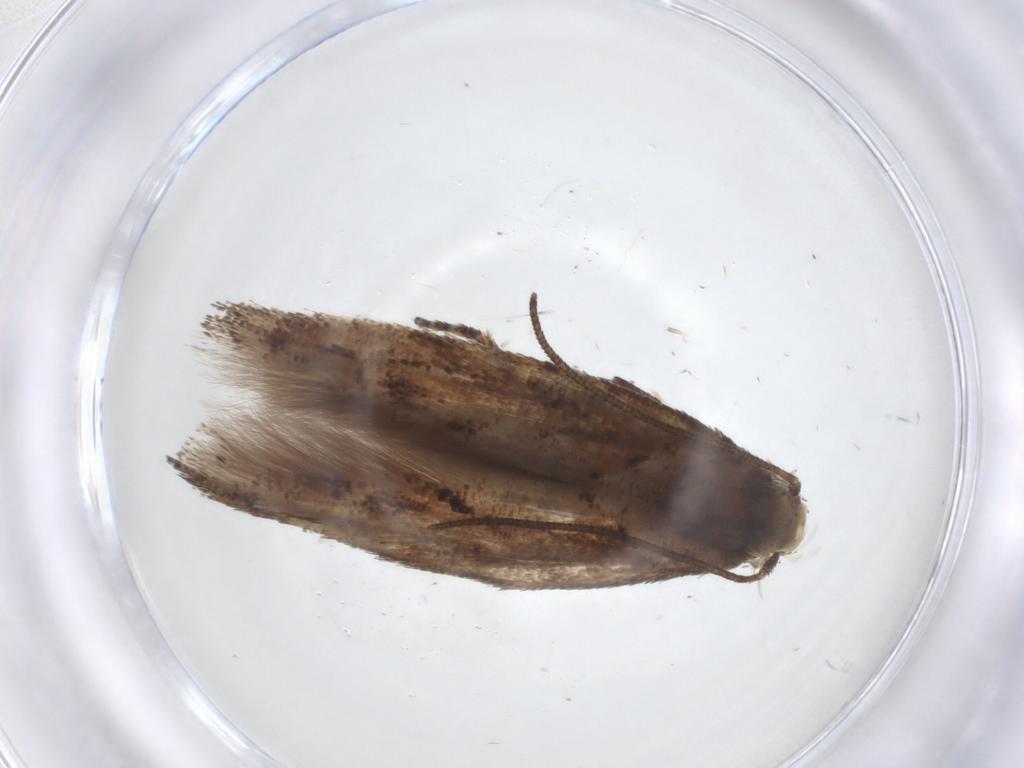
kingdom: Animalia
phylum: Arthropoda
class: Insecta
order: Lepidoptera
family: Momphidae
